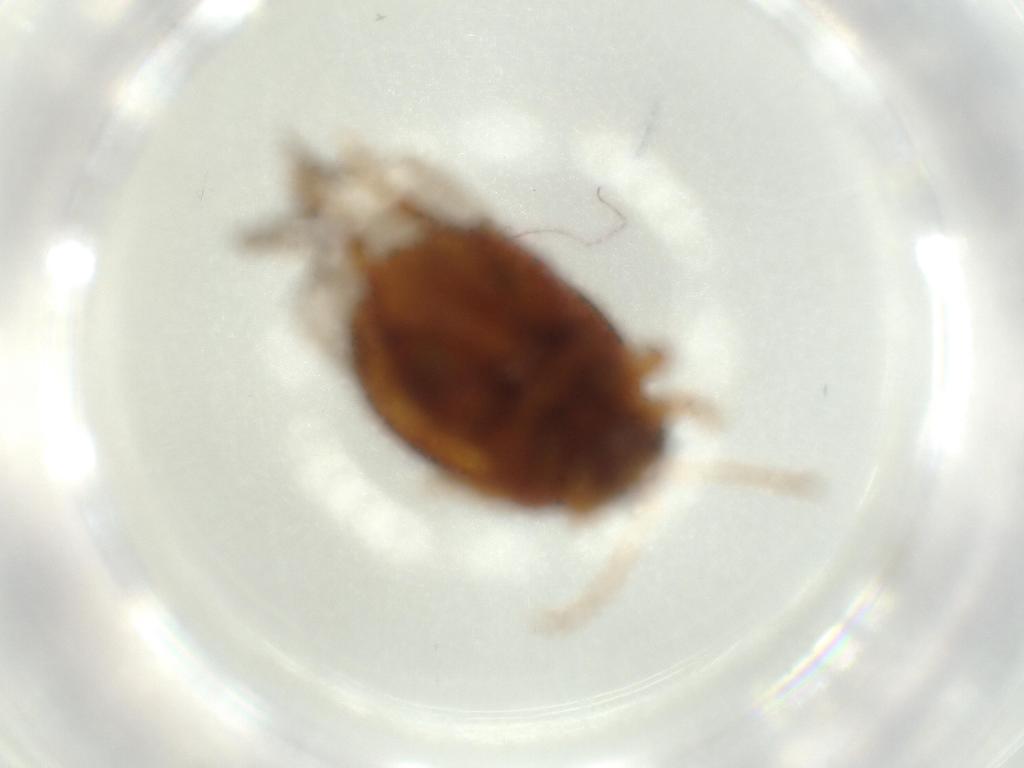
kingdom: Animalia
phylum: Arthropoda
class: Insecta
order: Coleoptera
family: Chrysomelidae
